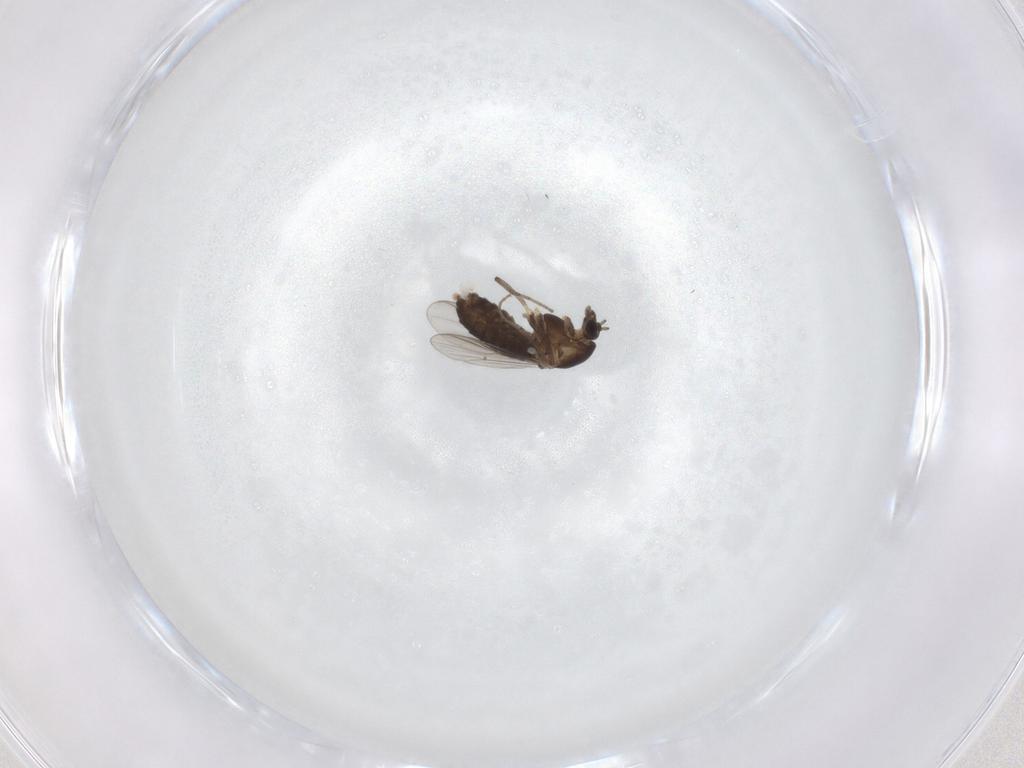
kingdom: Animalia
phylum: Arthropoda
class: Insecta
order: Diptera
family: Chironomidae
